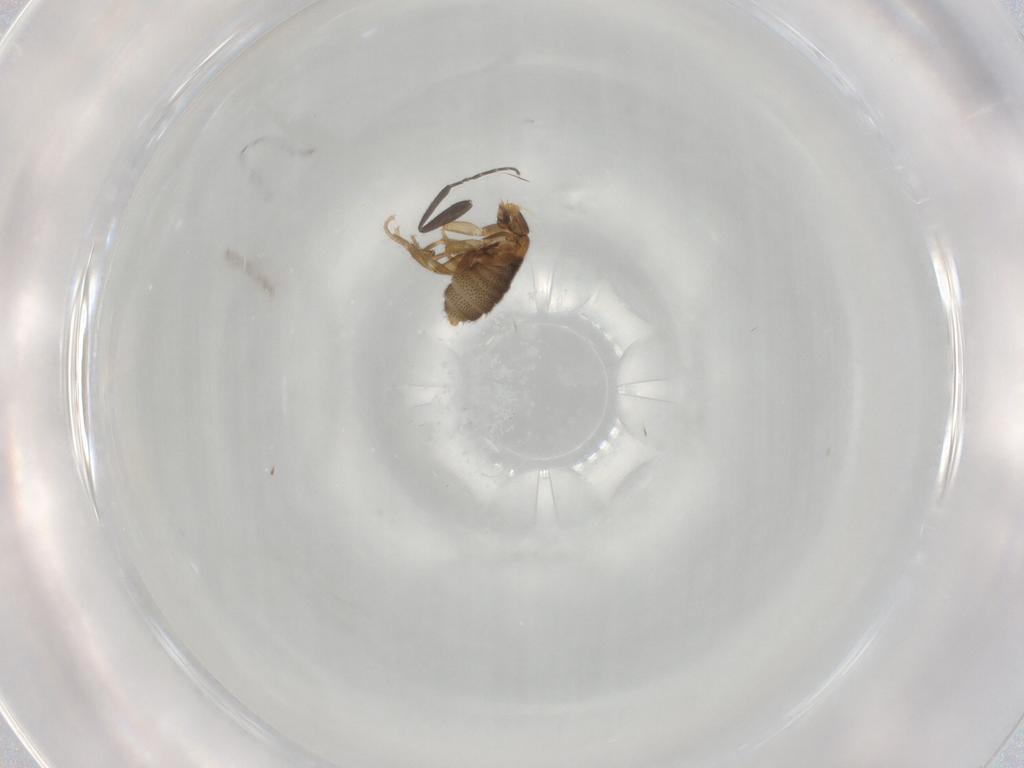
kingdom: Animalia
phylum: Arthropoda
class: Insecta
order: Diptera
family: Phoridae
